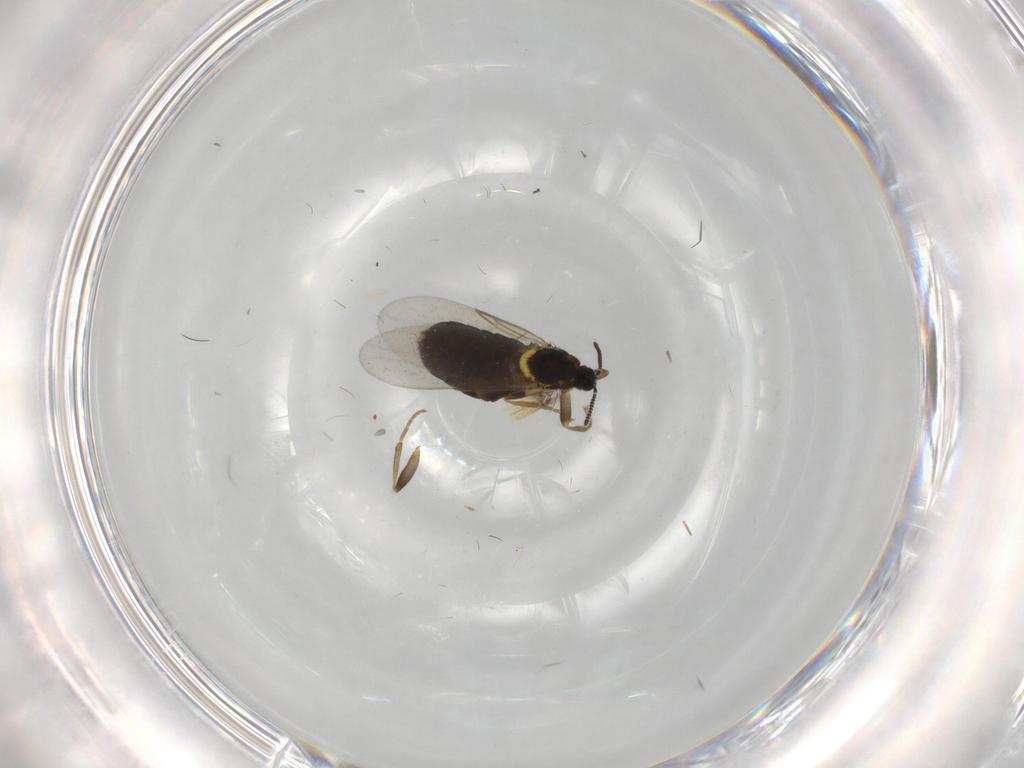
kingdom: Animalia
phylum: Arthropoda
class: Insecta
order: Diptera
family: Scatopsidae
